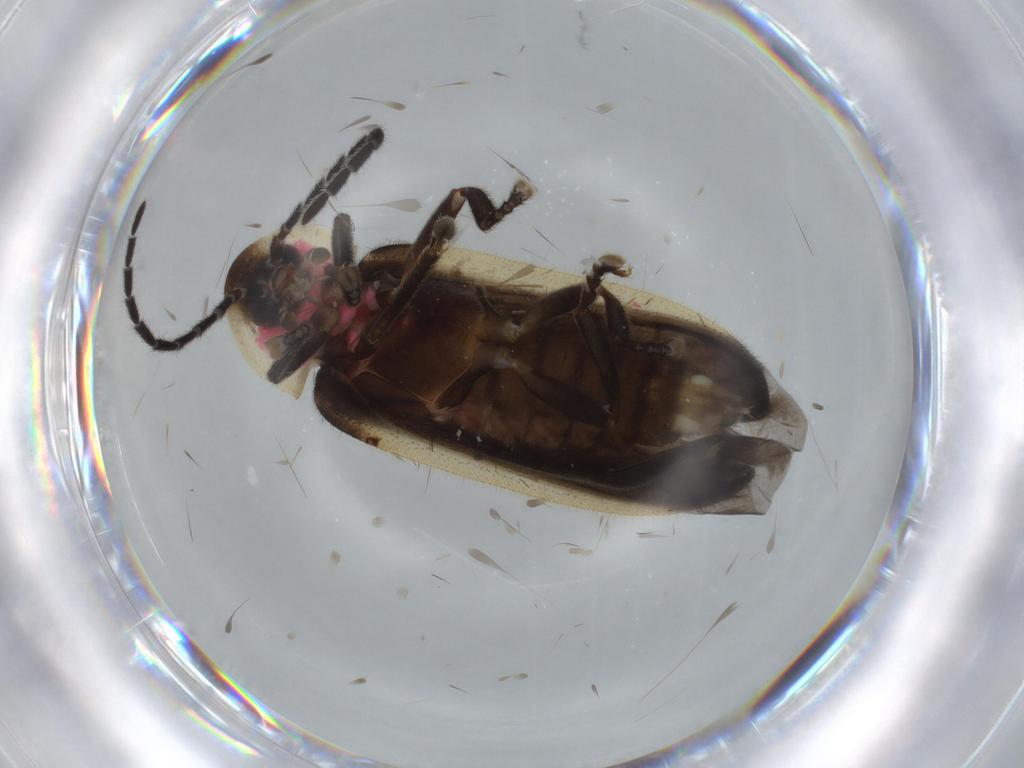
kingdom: Animalia
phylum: Arthropoda
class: Insecta
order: Coleoptera
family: Lampyridae
